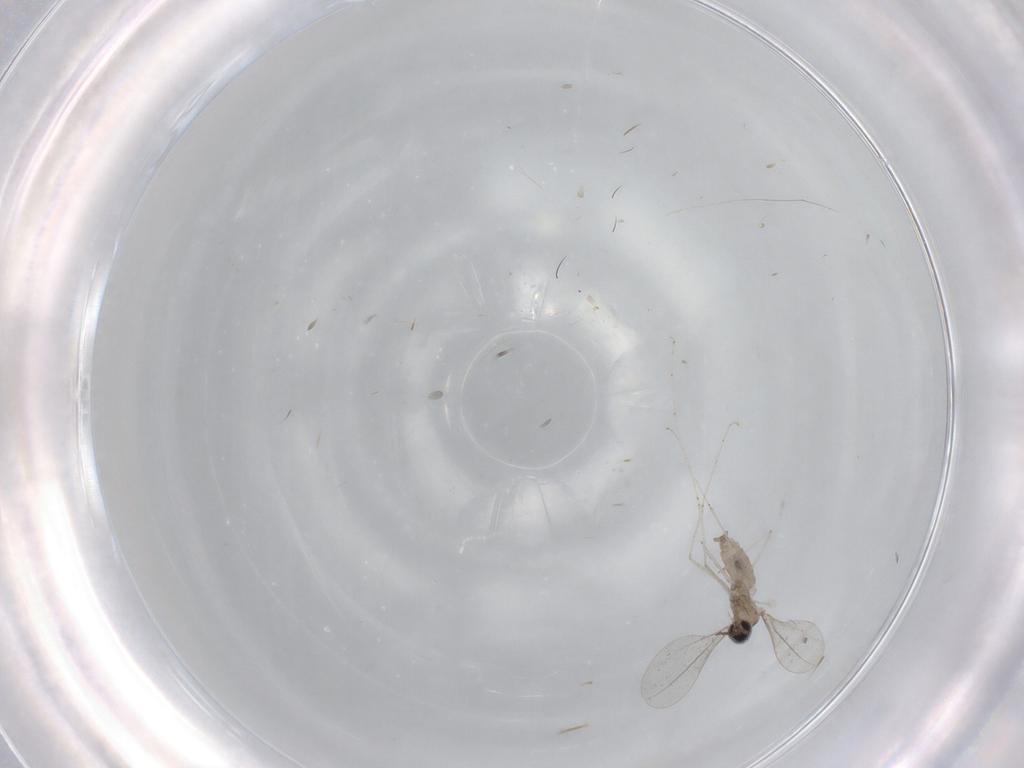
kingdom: Animalia
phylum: Arthropoda
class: Insecta
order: Diptera
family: Cecidomyiidae
